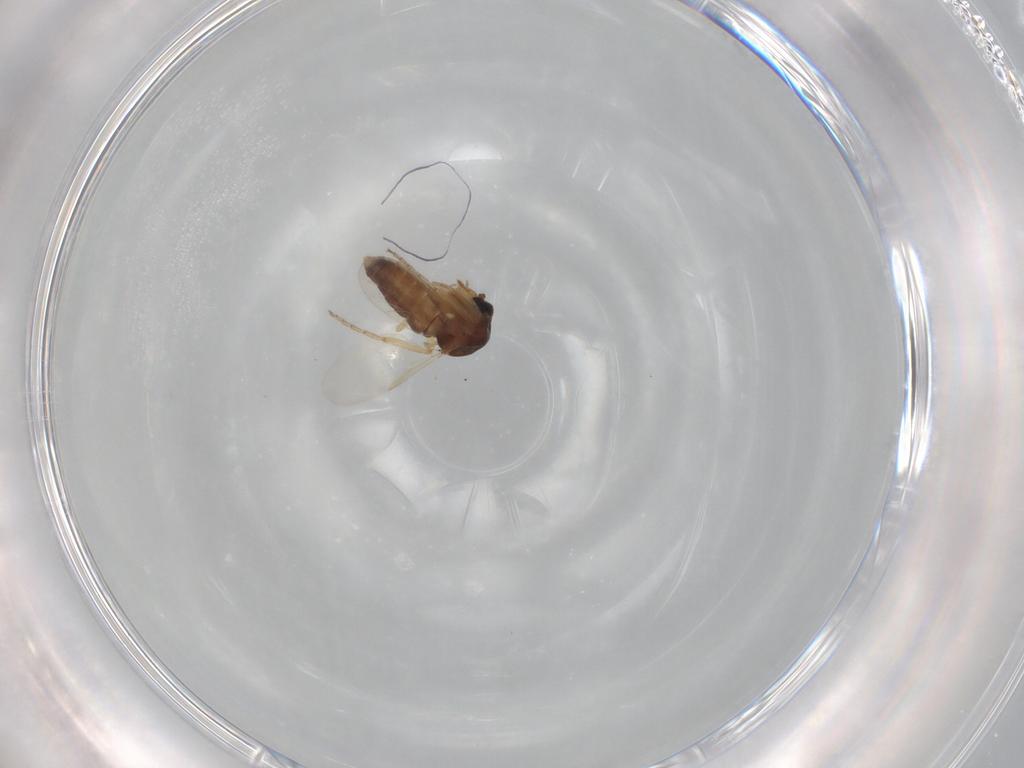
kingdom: Animalia
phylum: Arthropoda
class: Insecta
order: Diptera
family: Ceratopogonidae
